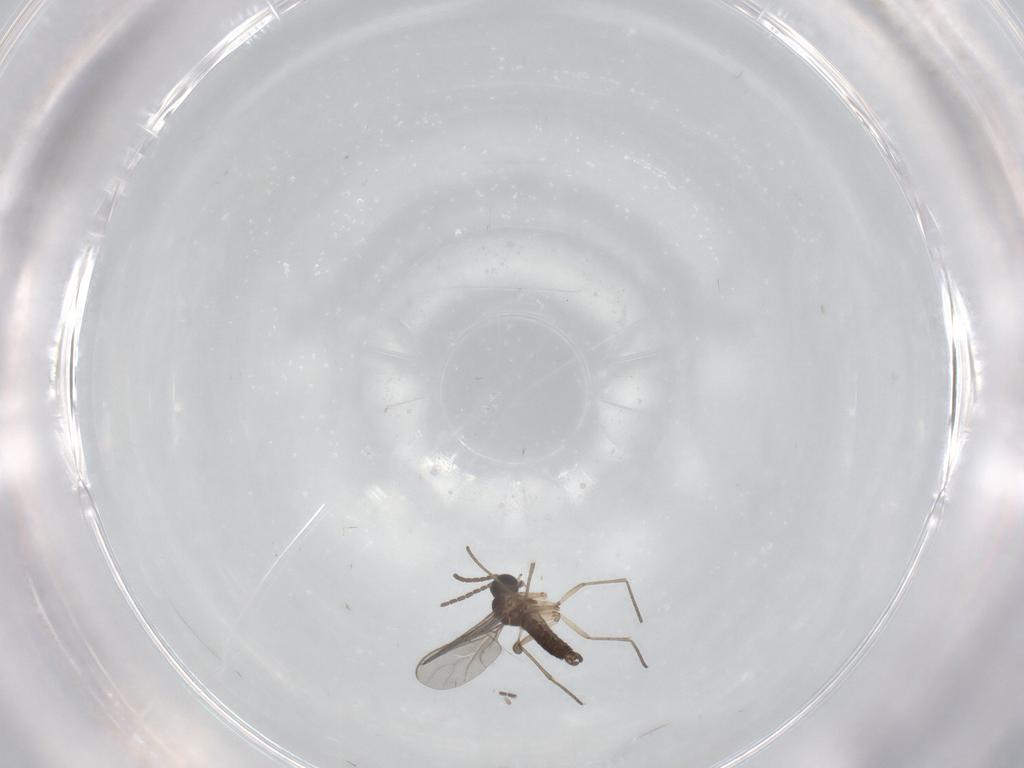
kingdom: Animalia
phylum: Arthropoda
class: Insecta
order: Diptera
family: Sciaridae
